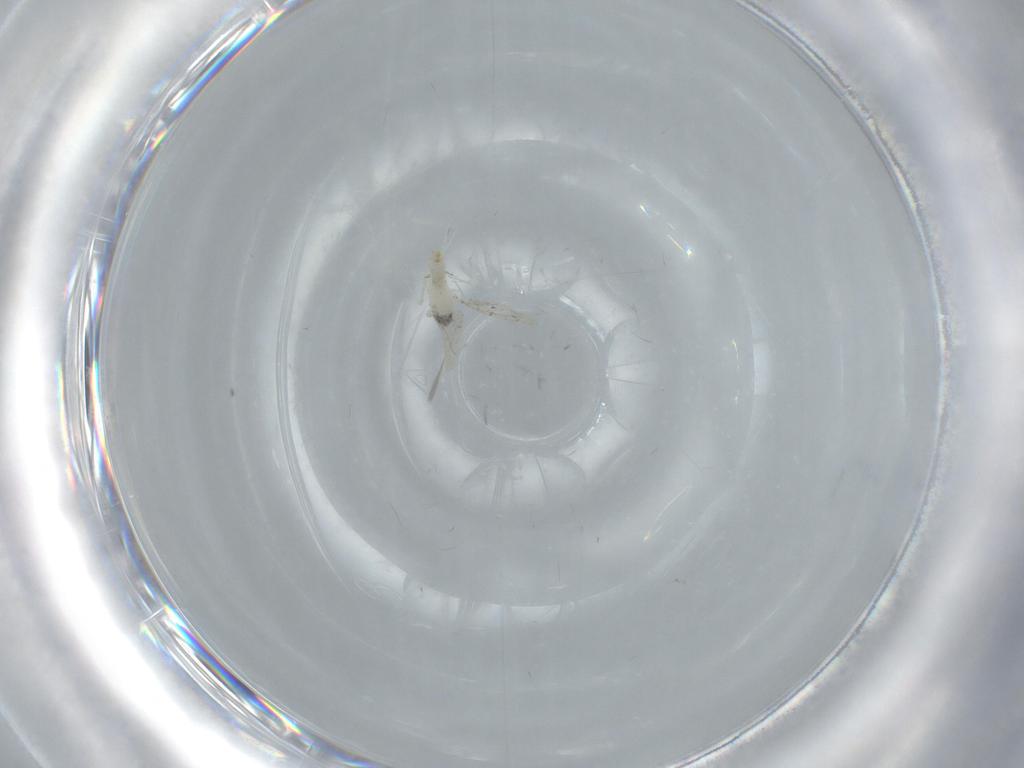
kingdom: Animalia
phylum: Arthropoda
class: Insecta
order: Diptera
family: Cecidomyiidae
